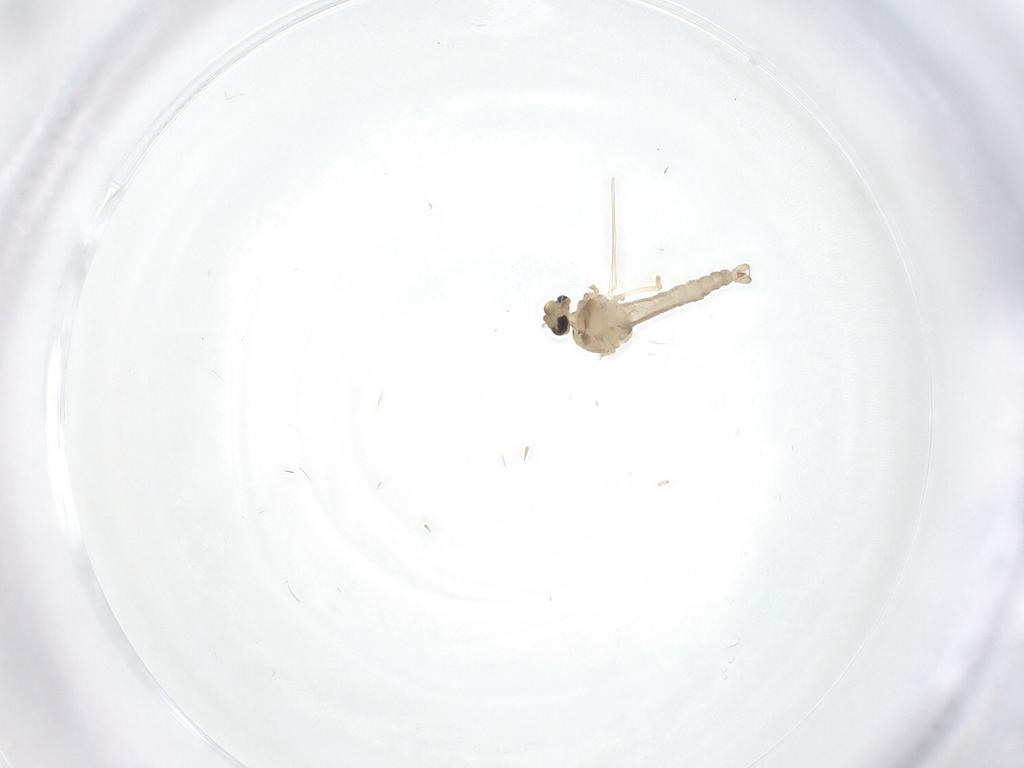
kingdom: Animalia
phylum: Arthropoda
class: Insecta
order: Diptera
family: Ceratopogonidae
